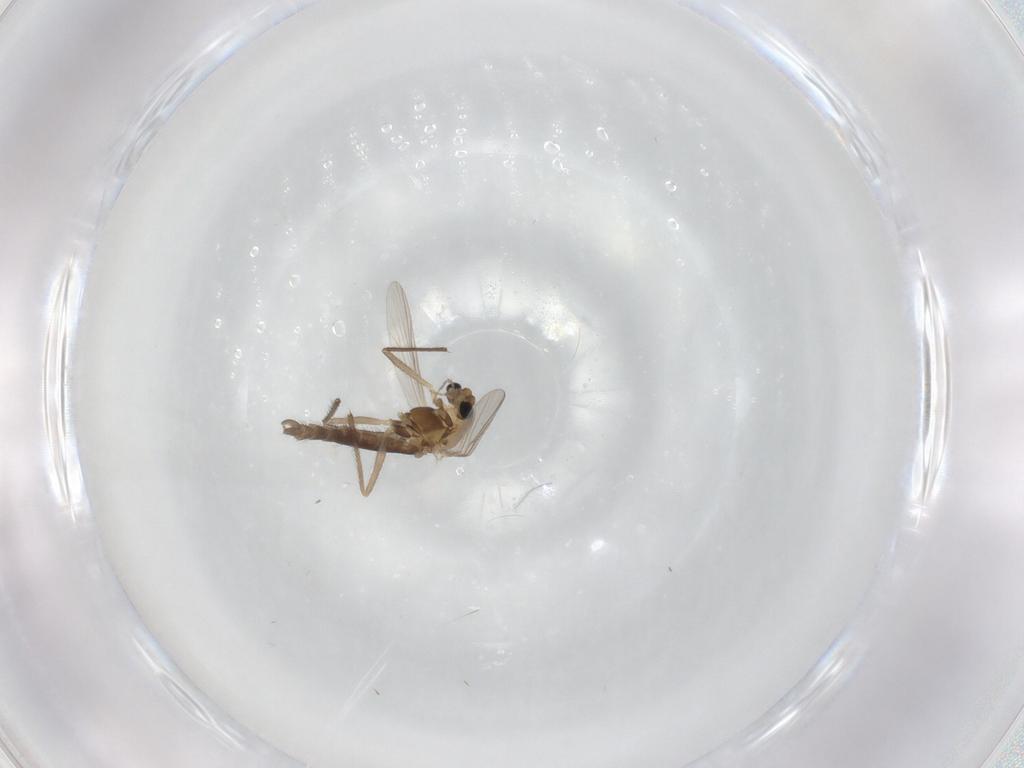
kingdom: Animalia
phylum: Arthropoda
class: Insecta
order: Diptera
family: Chironomidae
